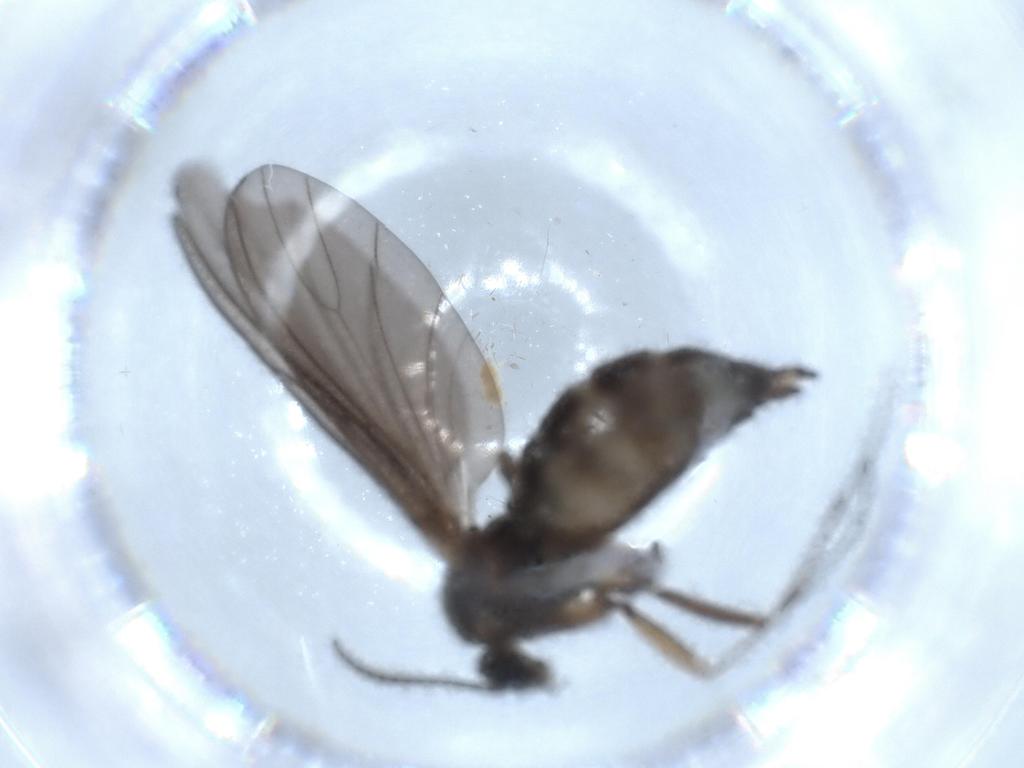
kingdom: Animalia
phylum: Arthropoda
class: Insecta
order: Diptera
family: Sciaridae
